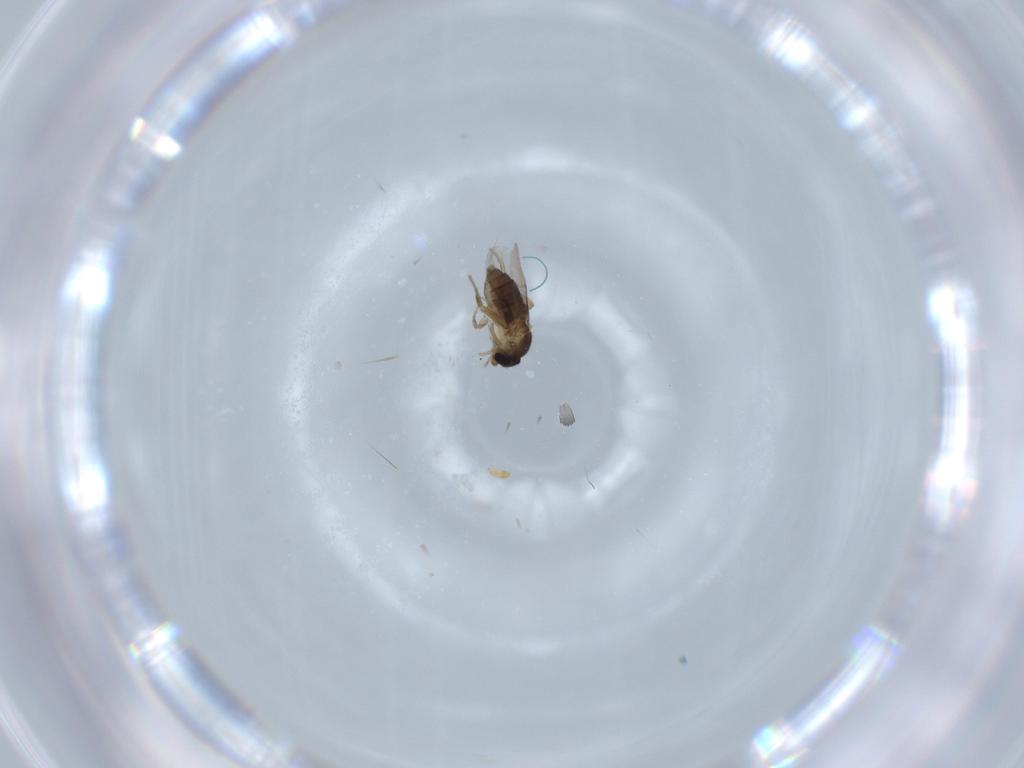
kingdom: Animalia
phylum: Arthropoda
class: Insecta
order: Diptera
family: Phoridae
